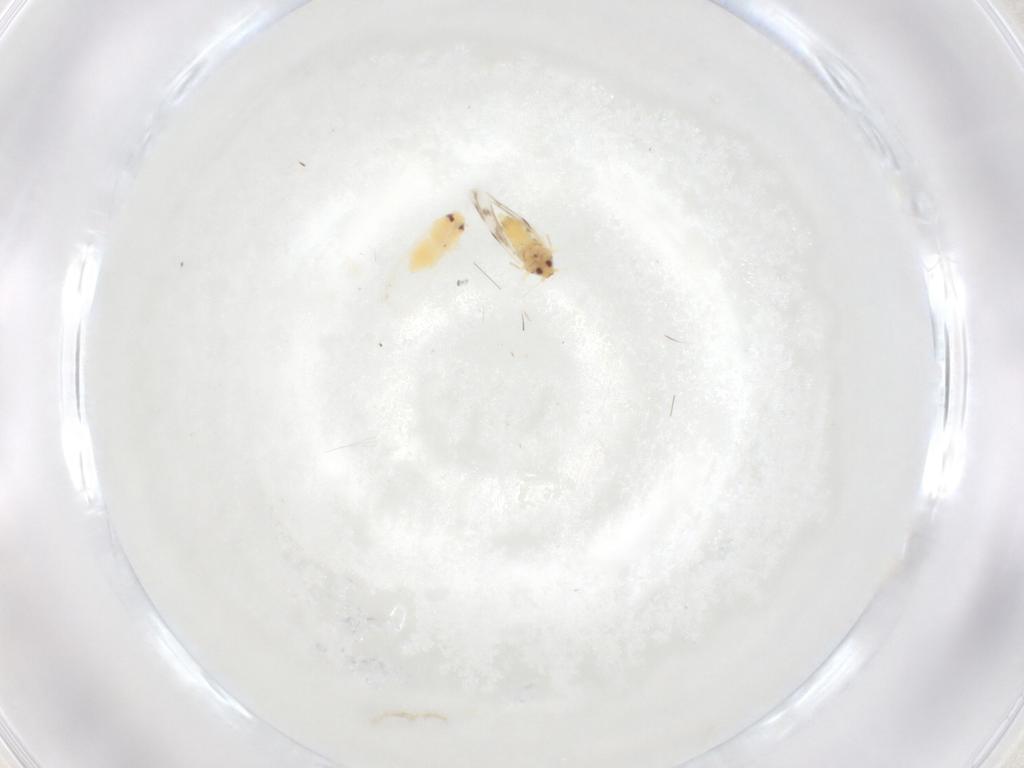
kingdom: Animalia
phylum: Arthropoda
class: Insecta
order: Hemiptera
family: Aleyrodidae
